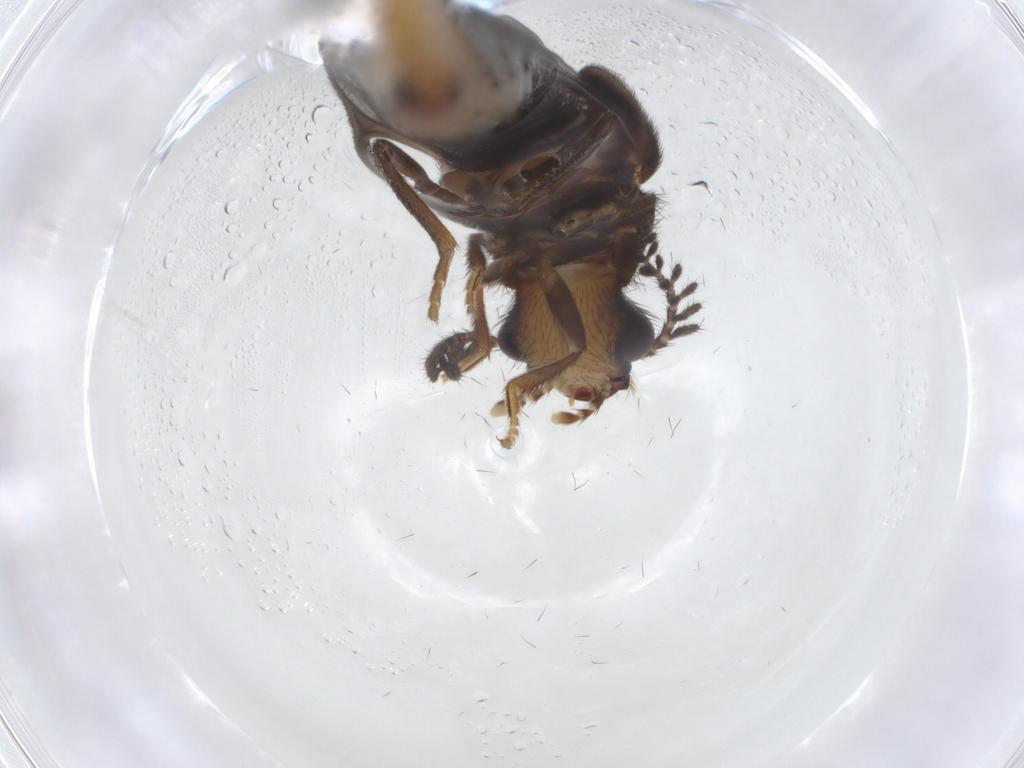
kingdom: Animalia
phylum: Arthropoda
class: Insecta
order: Coleoptera
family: Phengodidae
